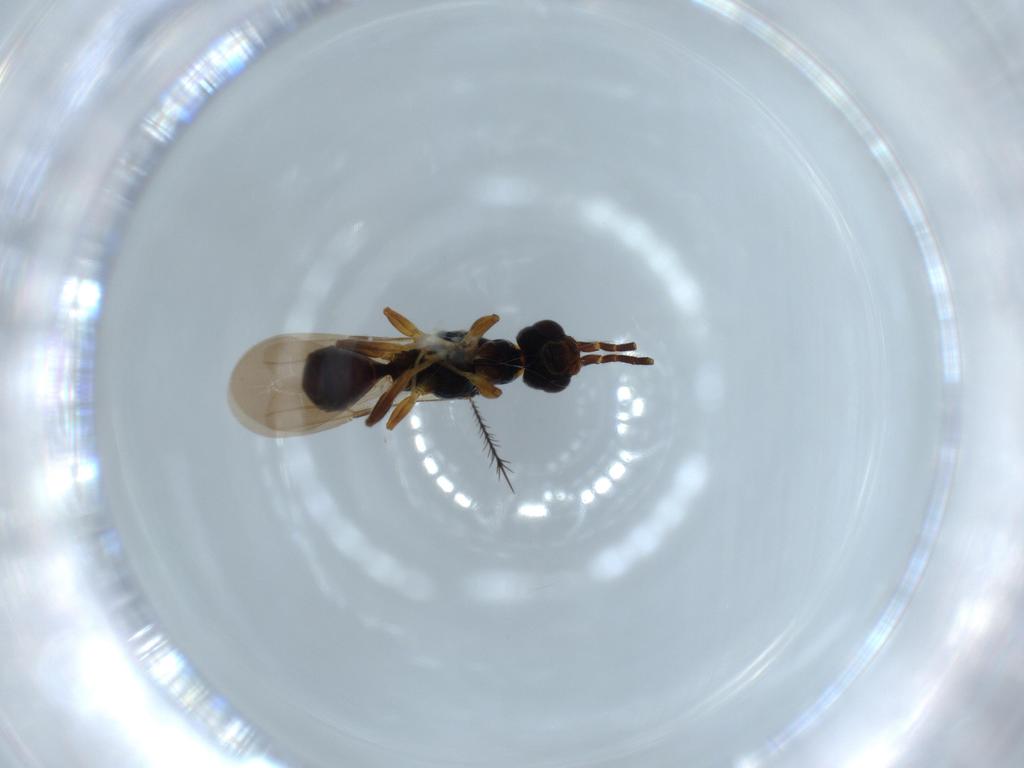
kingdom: Animalia
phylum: Arthropoda
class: Insecta
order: Hymenoptera
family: Bethylidae
